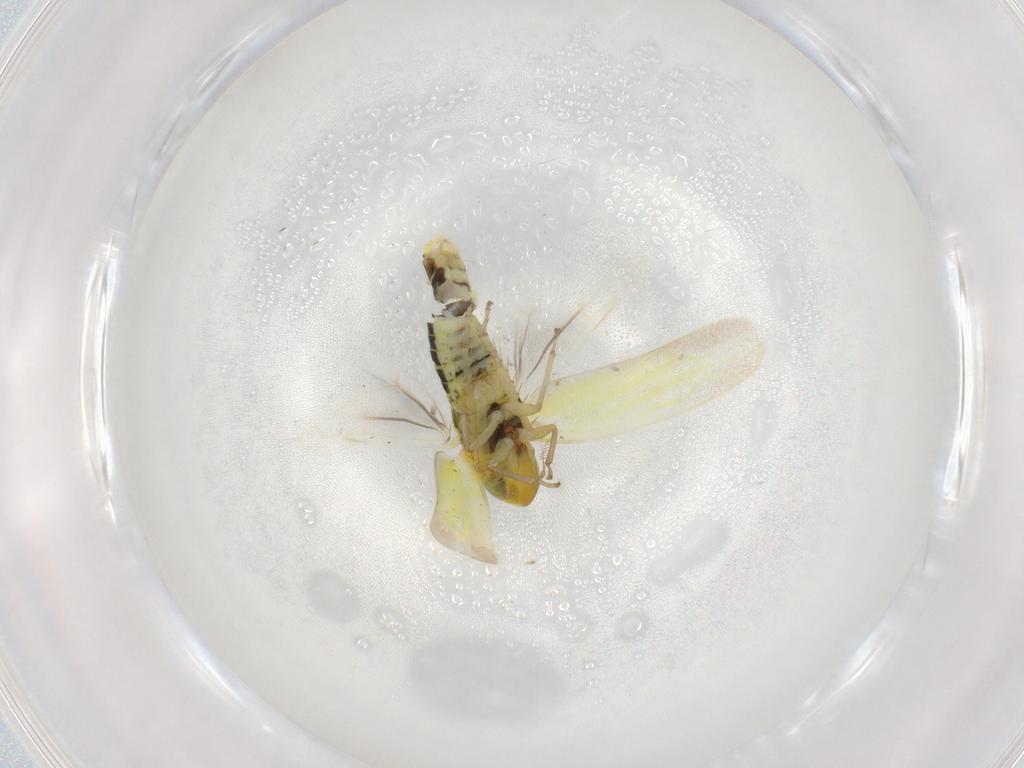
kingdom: Animalia
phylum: Arthropoda
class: Insecta
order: Hemiptera
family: Cicadellidae
